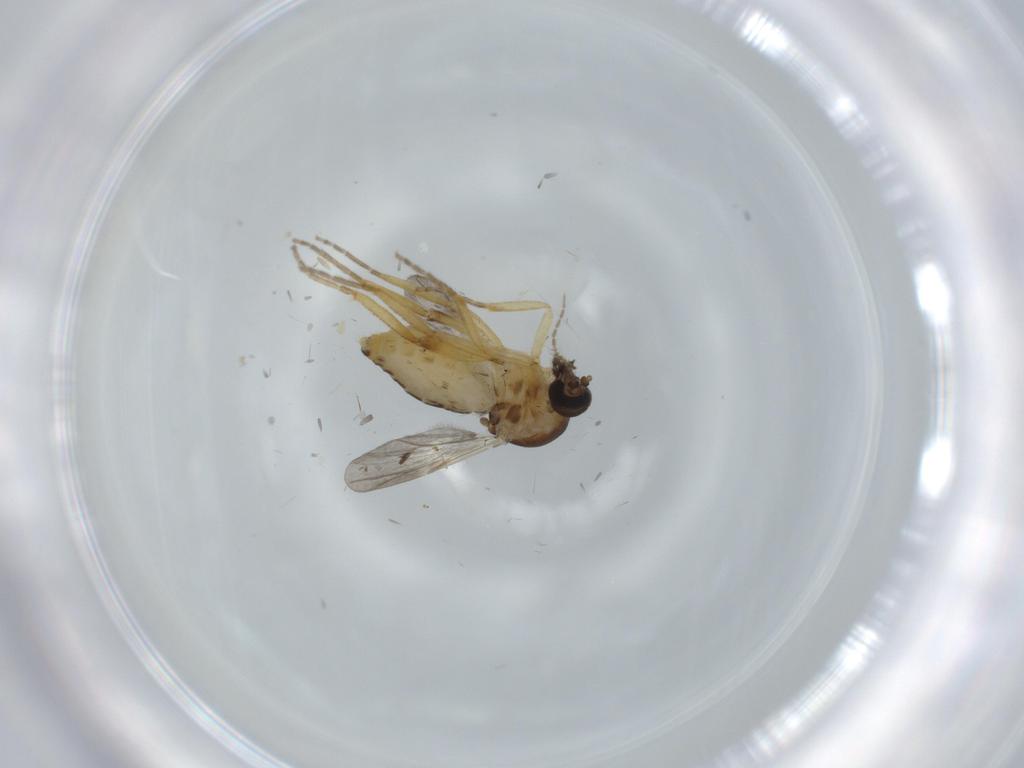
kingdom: Animalia
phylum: Arthropoda
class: Insecta
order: Diptera
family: Ceratopogonidae
